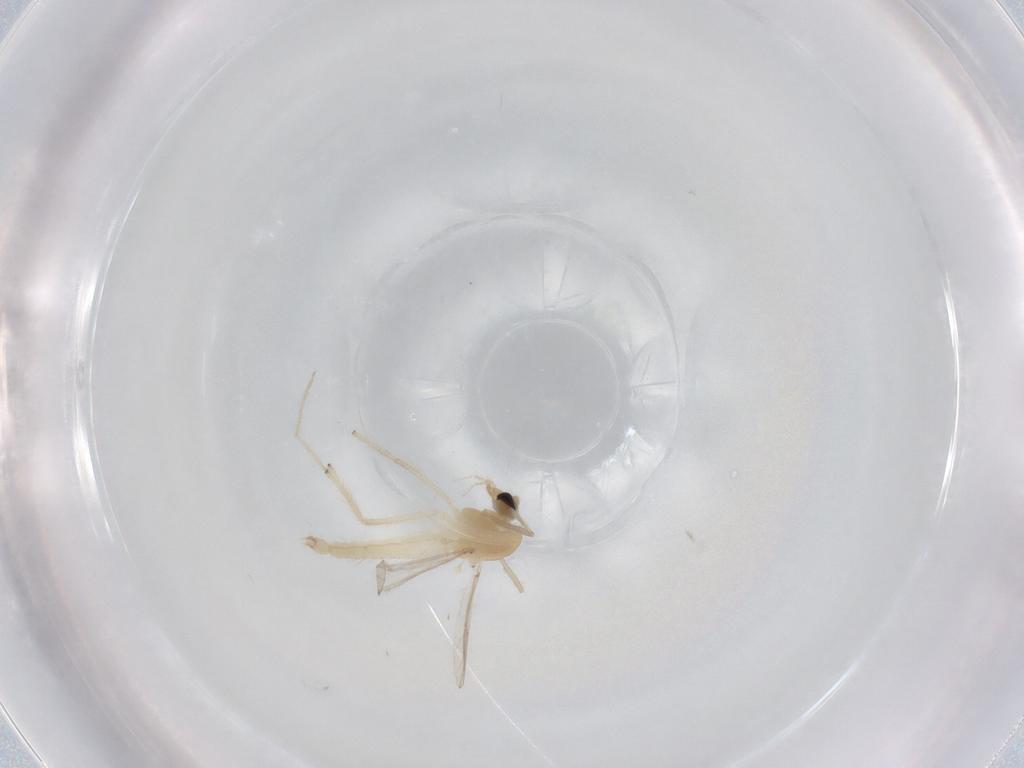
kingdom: Animalia
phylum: Arthropoda
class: Insecta
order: Diptera
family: Chironomidae
